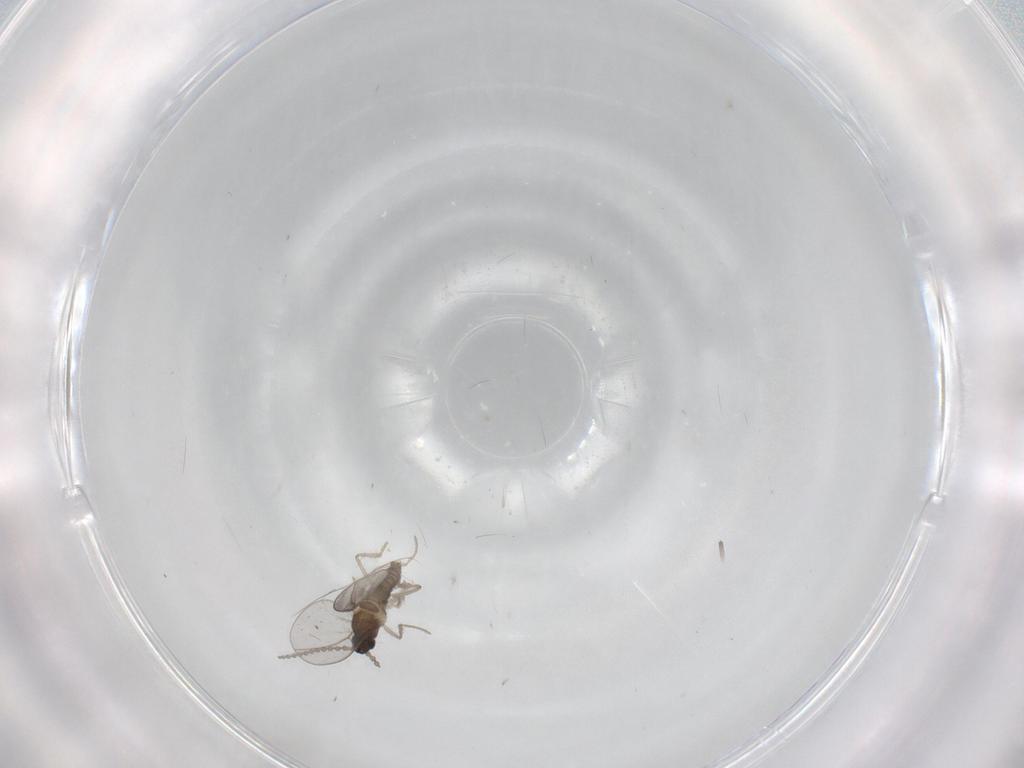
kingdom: Animalia
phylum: Arthropoda
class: Insecta
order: Diptera
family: Cecidomyiidae
